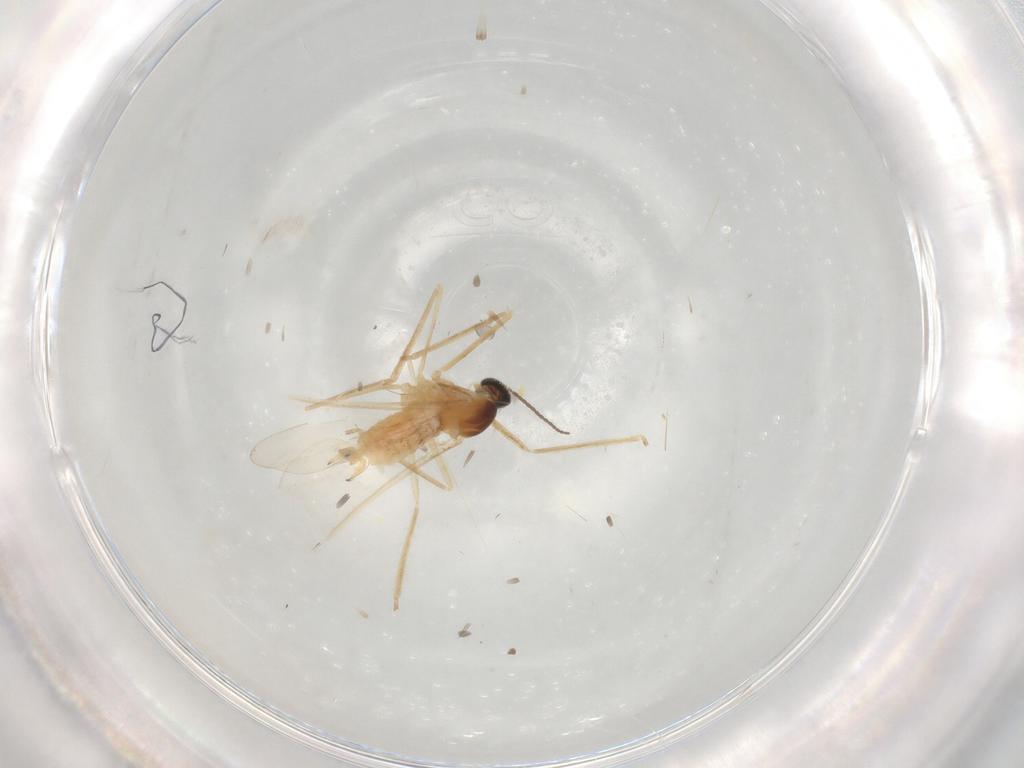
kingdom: Animalia
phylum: Arthropoda
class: Insecta
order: Diptera
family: Cecidomyiidae
